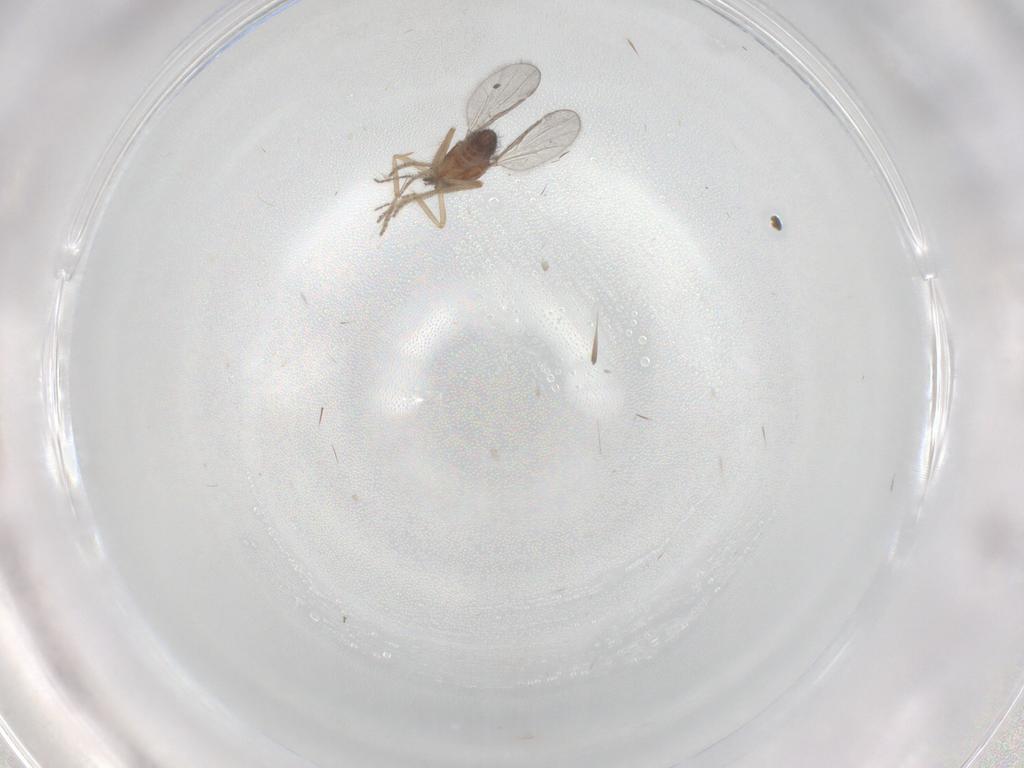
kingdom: Animalia
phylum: Arthropoda
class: Insecta
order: Diptera
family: Ceratopogonidae
